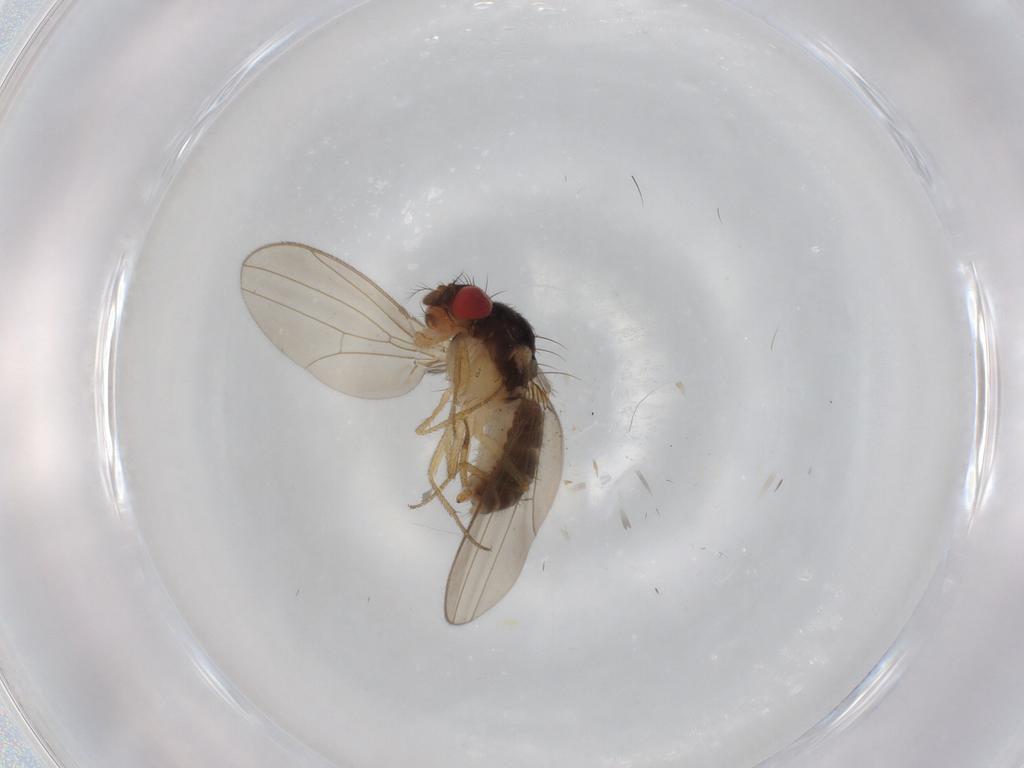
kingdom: Animalia
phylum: Arthropoda
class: Insecta
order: Diptera
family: Drosophilidae
